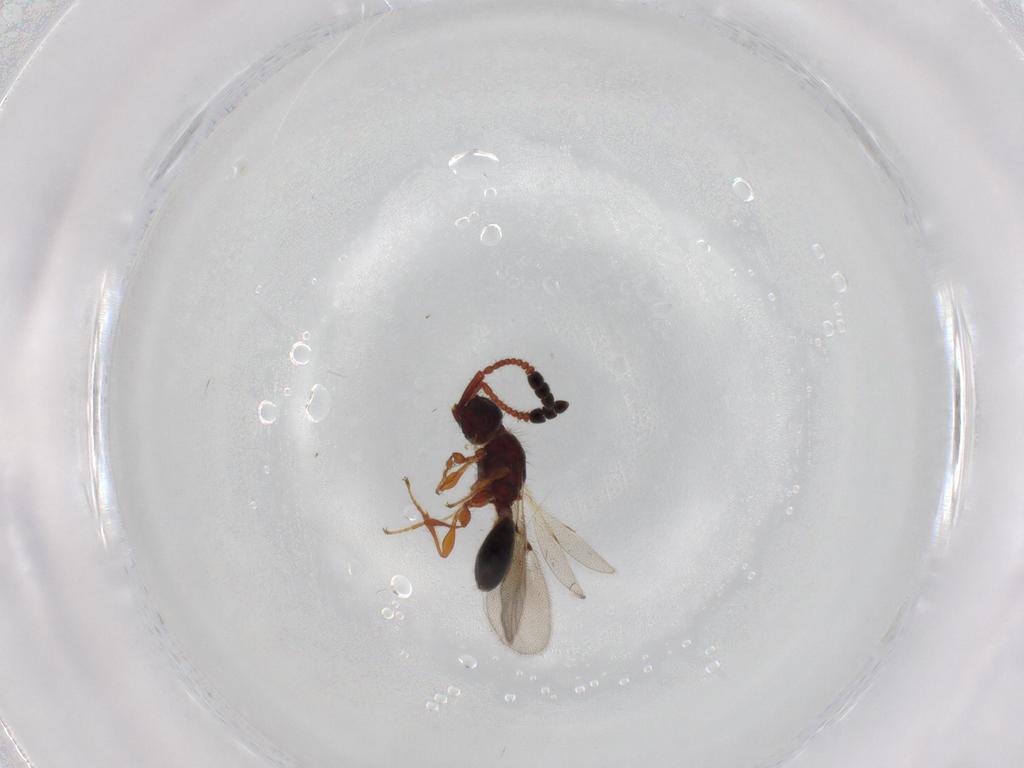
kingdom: Animalia
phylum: Arthropoda
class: Insecta
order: Hymenoptera
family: Diapriidae
